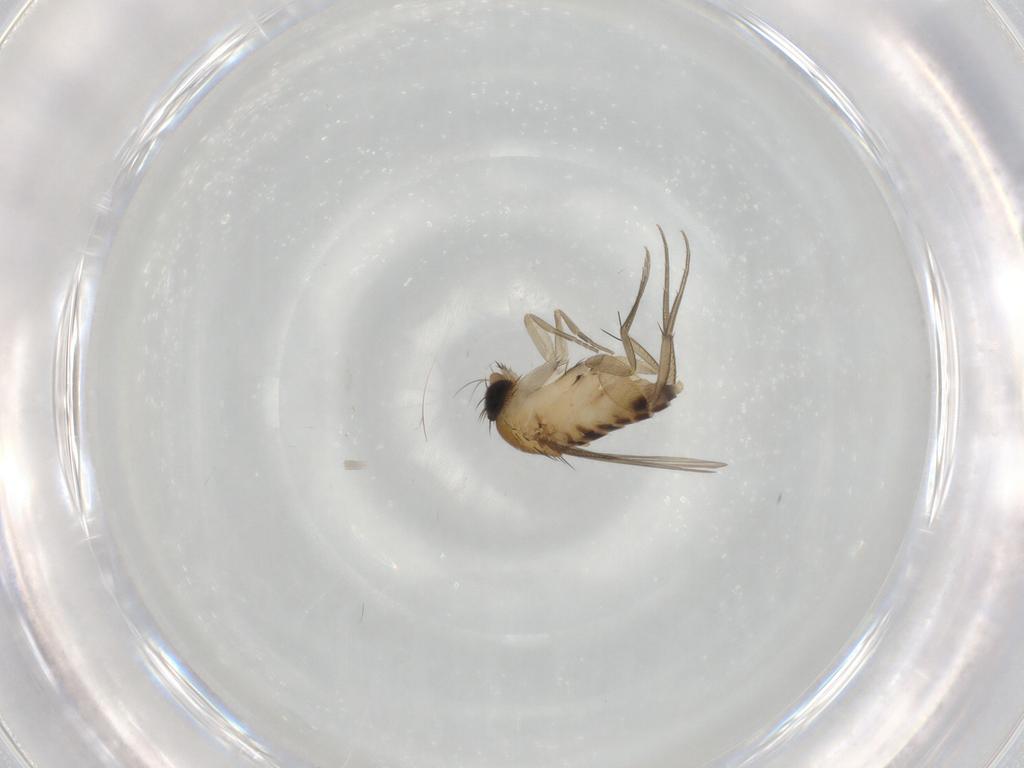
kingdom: Animalia
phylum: Arthropoda
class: Insecta
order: Diptera
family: Phoridae
